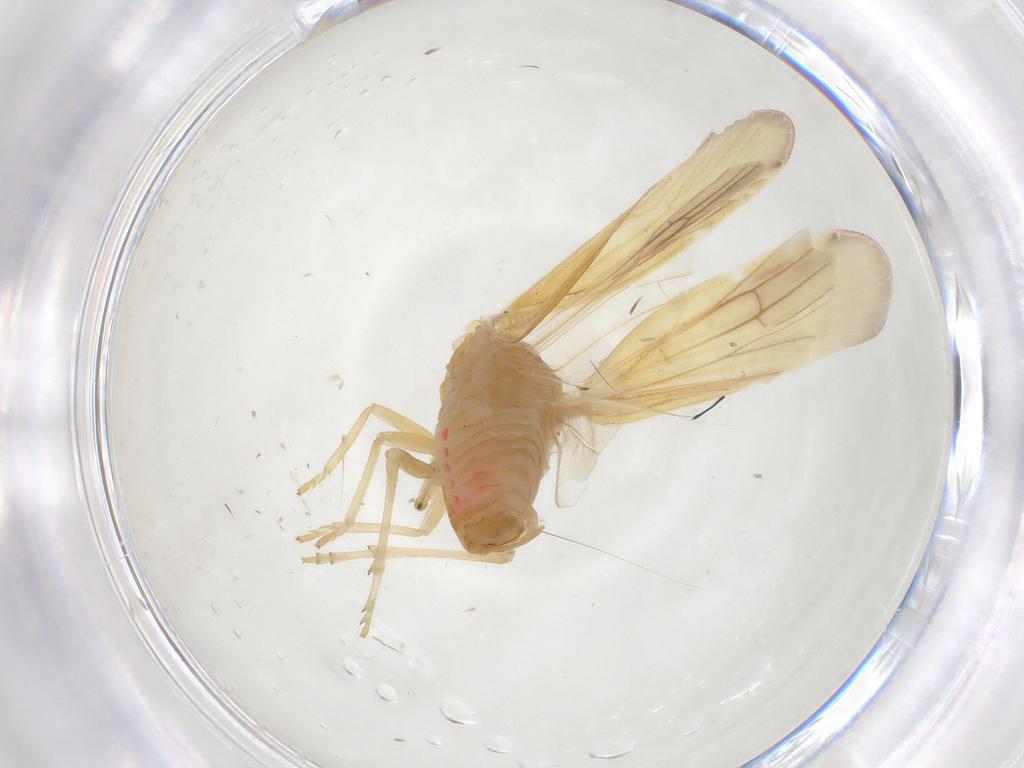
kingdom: Animalia
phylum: Arthropoda
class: Insecta
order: Hemiptera
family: Derbidae
